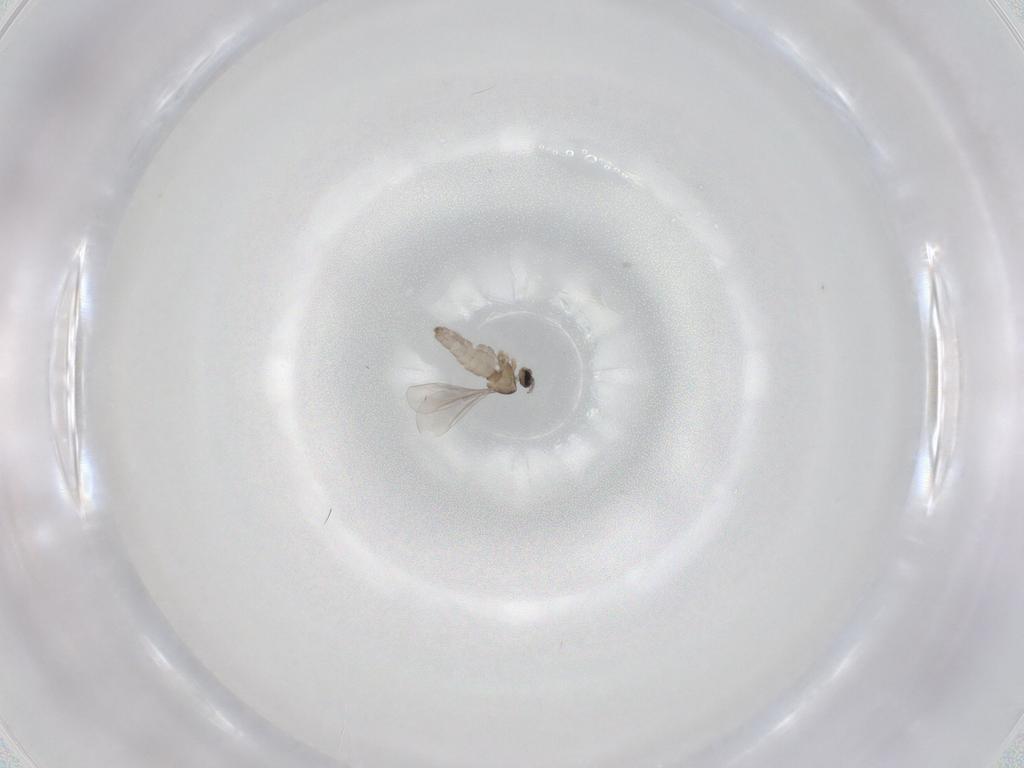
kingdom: Animalia
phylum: Arthropoda
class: Insecta
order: Diptera
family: Cecidomyiidae
